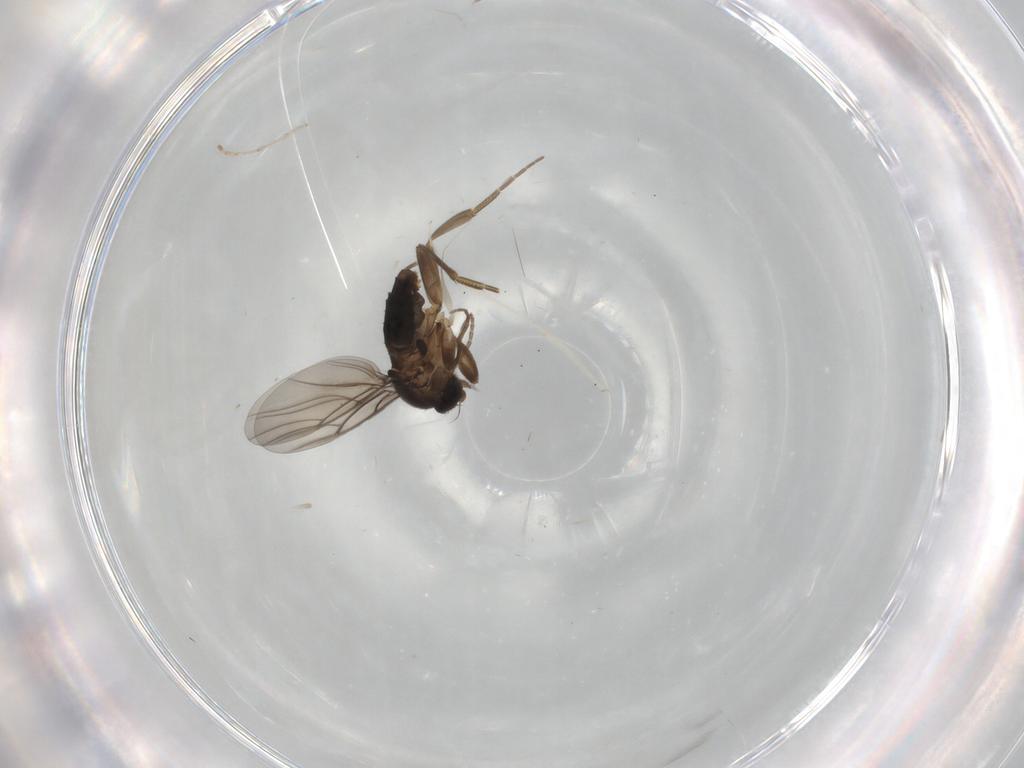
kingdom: Animalia
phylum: Arthropoda
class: Insecta
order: Diptera
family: Phoridae
